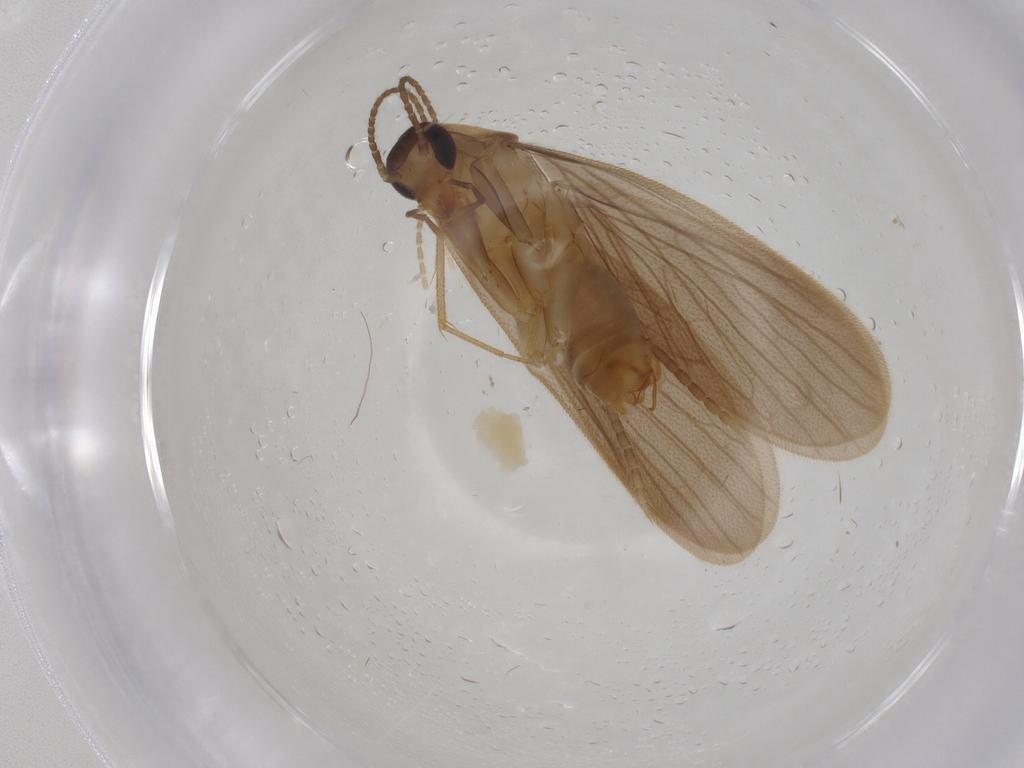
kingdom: Animalia
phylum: Arthropoda
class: Insecta
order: Blattodea
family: Nocticolidae
